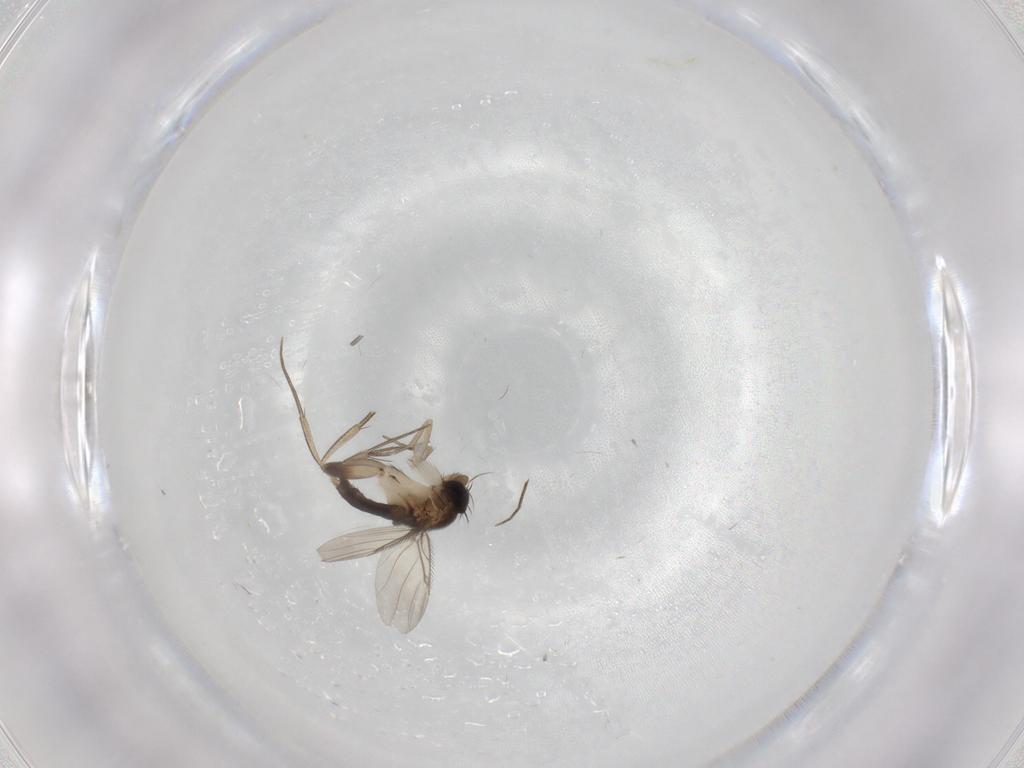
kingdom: Animalia
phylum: Arthropoda
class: Insecta
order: Diptera
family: Phoridae
